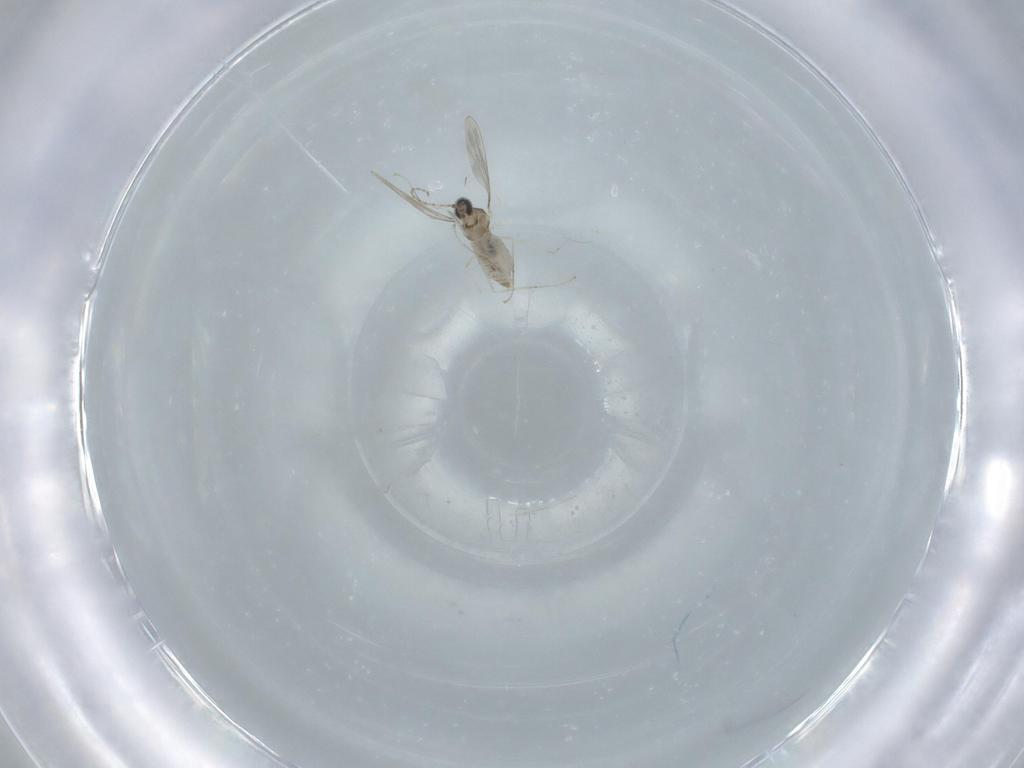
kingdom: Animalia
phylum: Arthropoda
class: Insecta
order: Diptera
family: Cecidomyiidae
